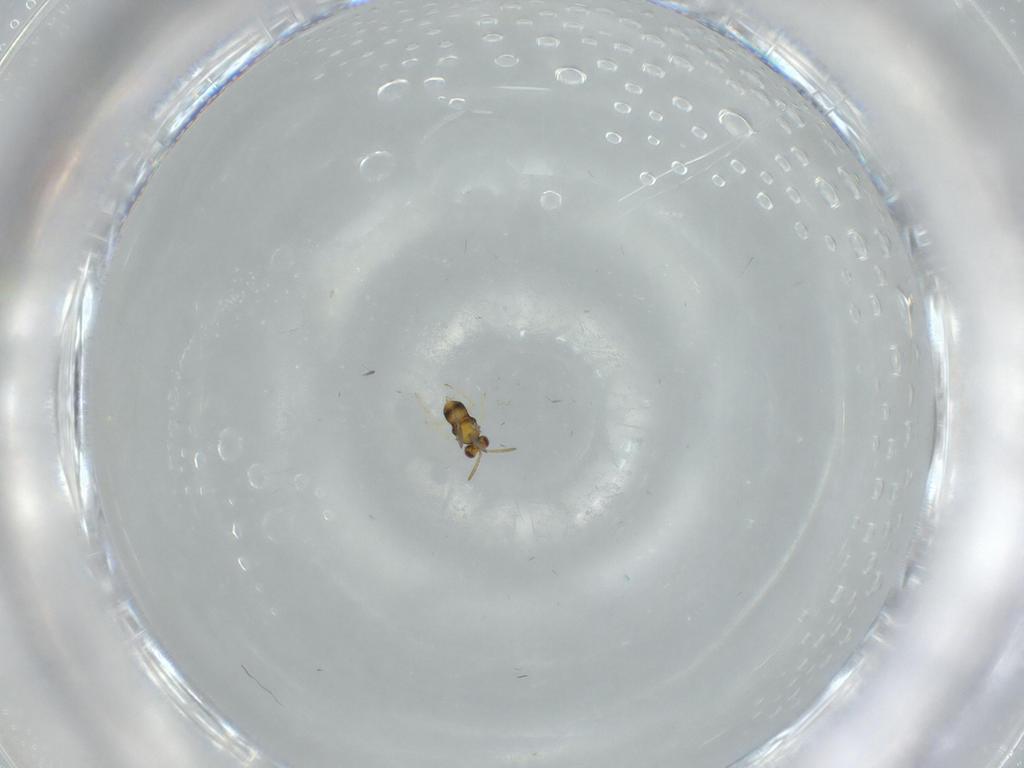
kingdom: Animalia
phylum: Arthropoda
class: Insecta
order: Hymenoptera
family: Aphelinidae
